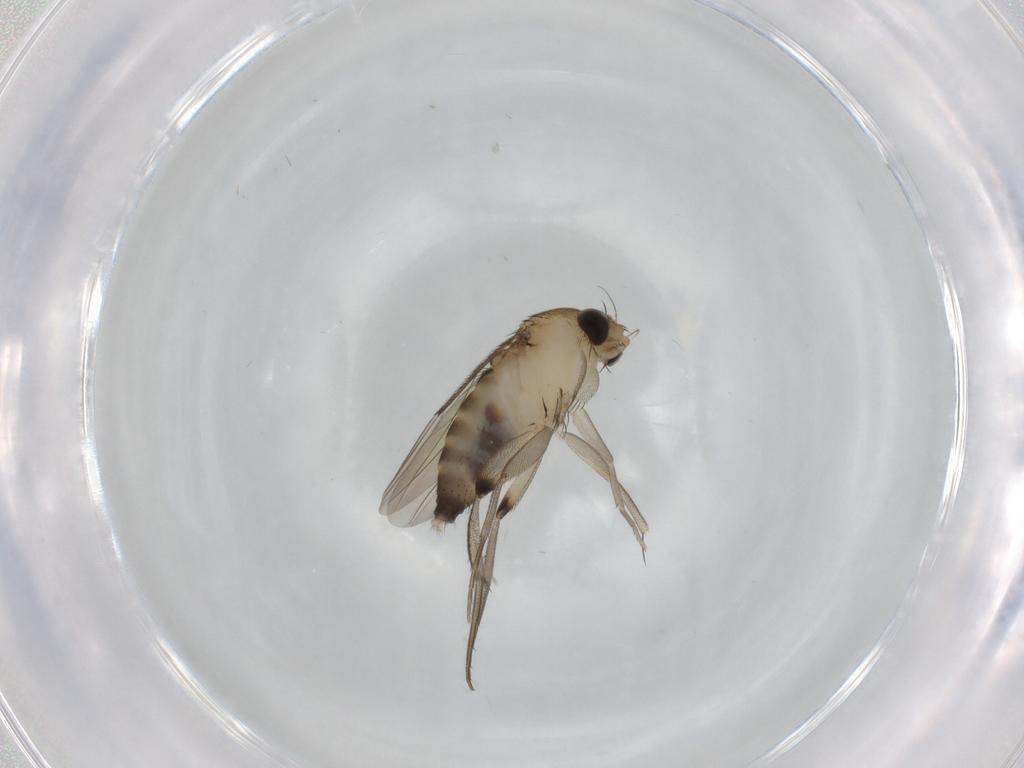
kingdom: Animalia
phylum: Arthropoda
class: Insecta
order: Diptera
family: Phoridae
